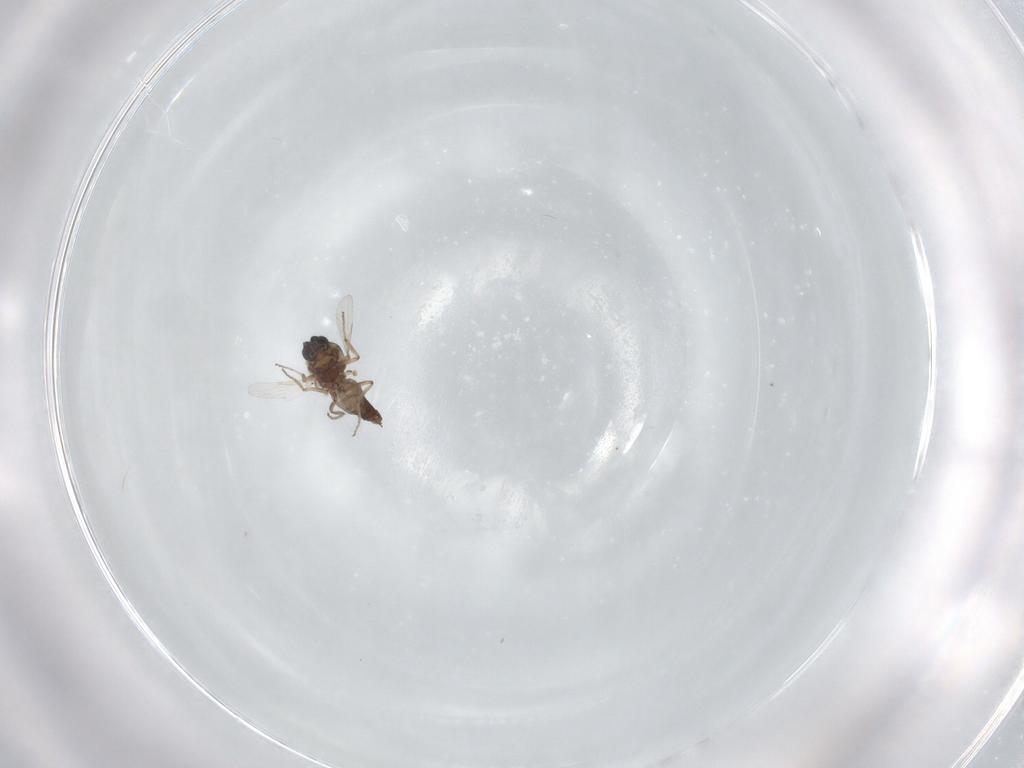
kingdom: Animalia
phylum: Arthropoda
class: Insecta
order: Diptera
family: Ceratopogonidae
